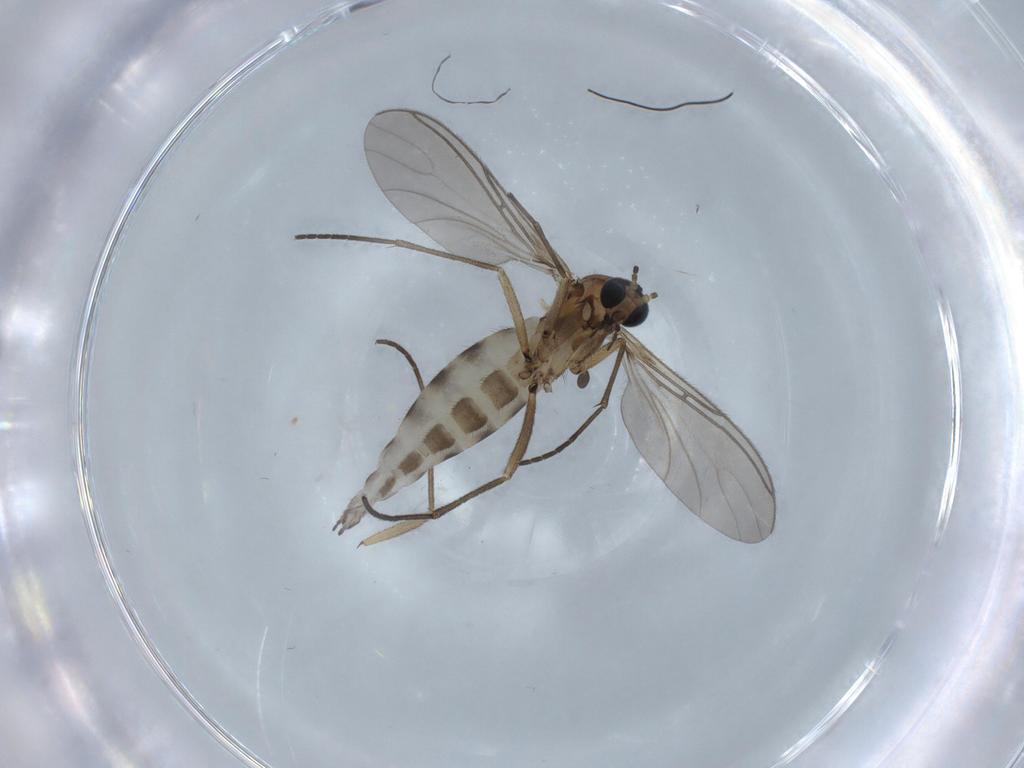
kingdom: Animalia
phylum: Arthropoda
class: Insecta
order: Diptera
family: Sciaridae
